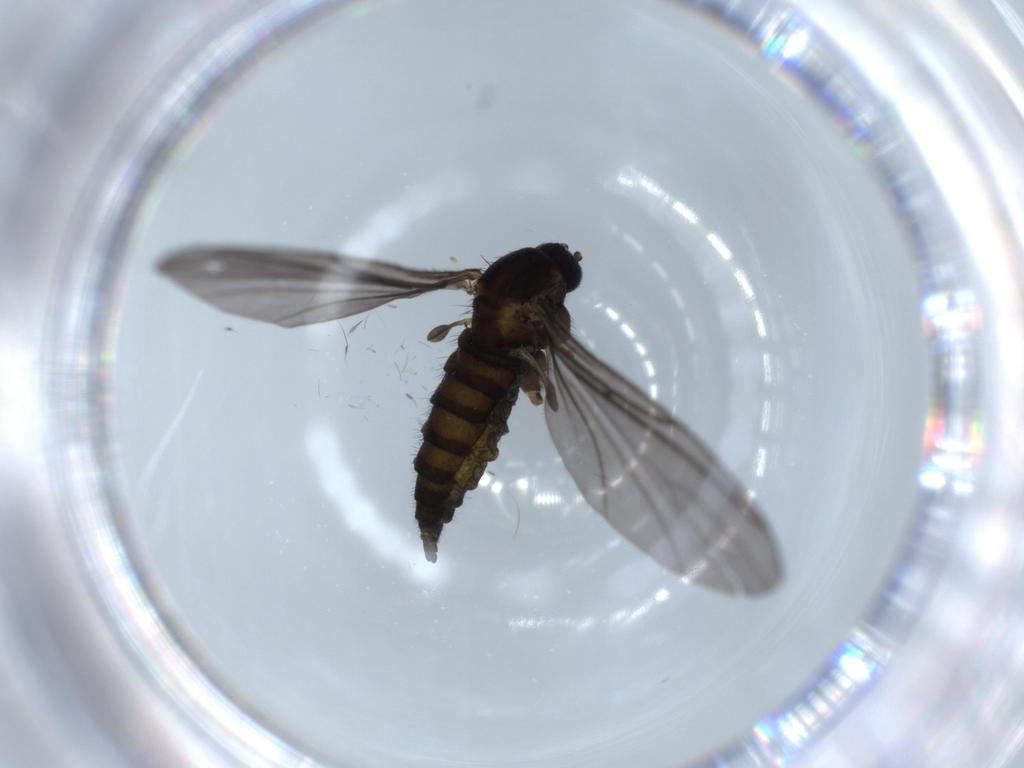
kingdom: Animalia
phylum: Arthropoda
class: Insecta
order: Diptera
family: Sciaridae
